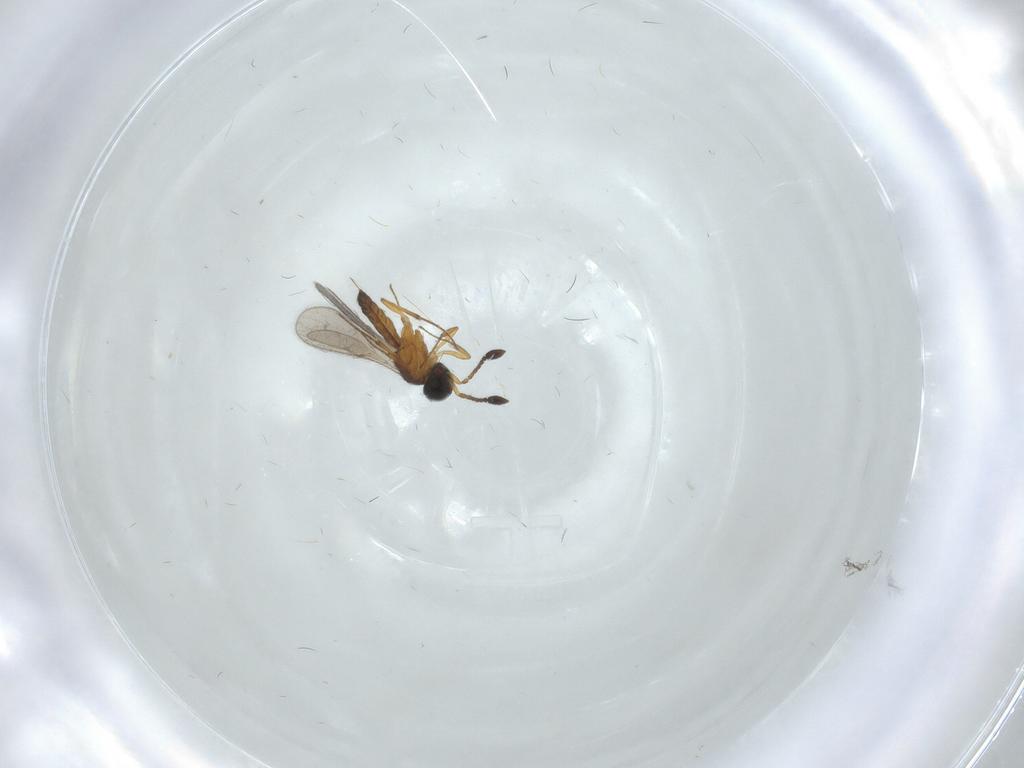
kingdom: Animalia
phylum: Arthropoda
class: Insecta
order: Hymenoptera
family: Scelionidae
